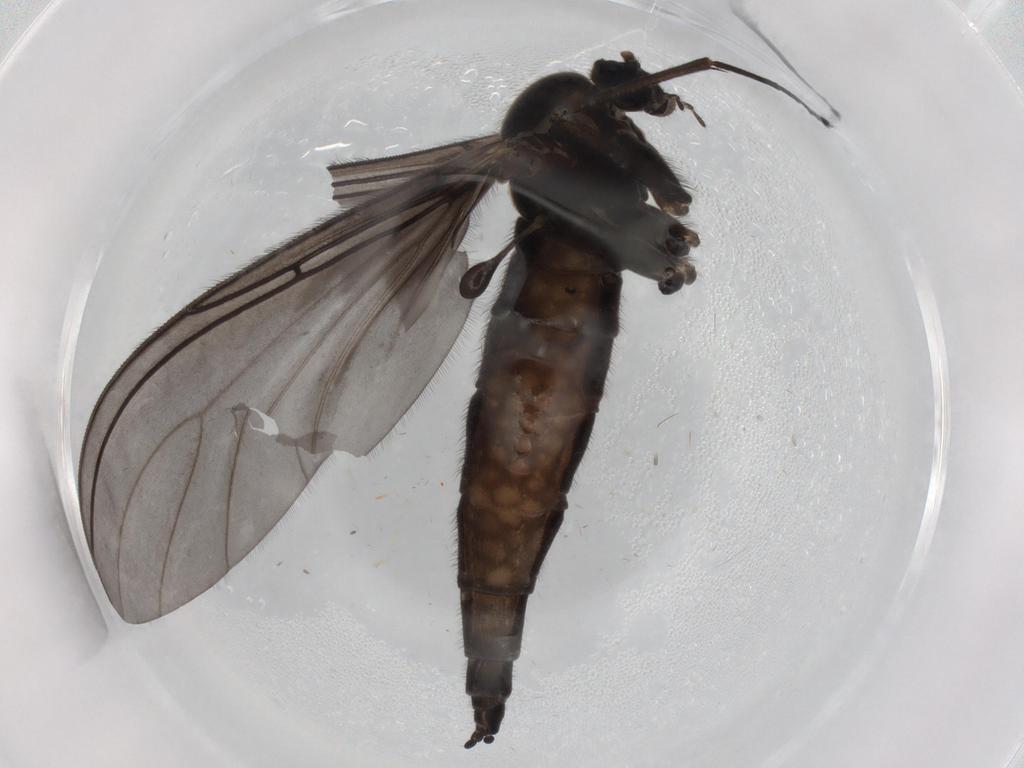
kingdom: Animalia
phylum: Arthropoda
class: Insecta
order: Diptera
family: Sciaridae
